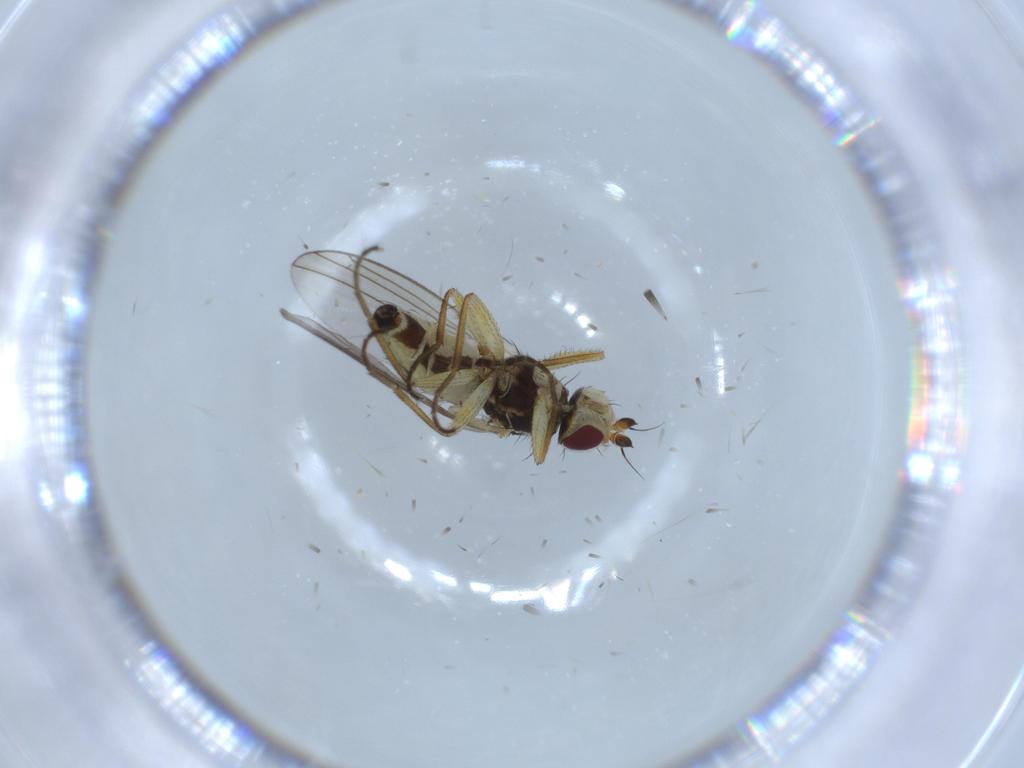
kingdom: Animalia
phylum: Arthropoda
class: Insecta
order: Diptera
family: Agromyzidae
